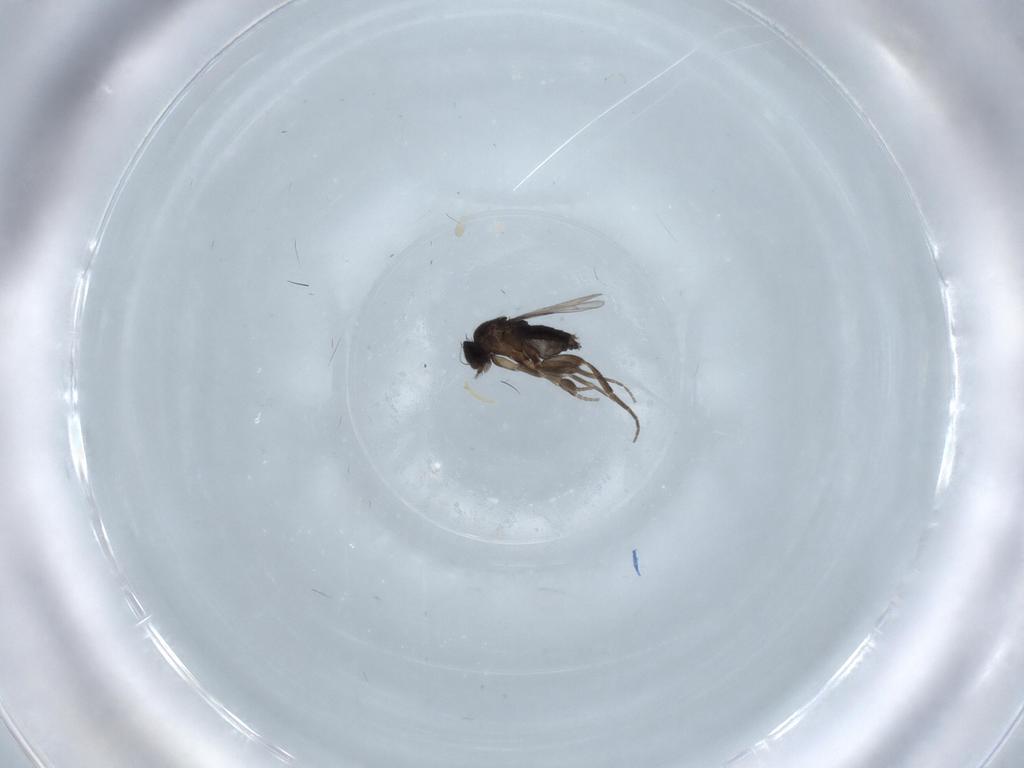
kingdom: Animalia
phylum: Arthropoda
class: Insecta
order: Diptera
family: Phoridae
